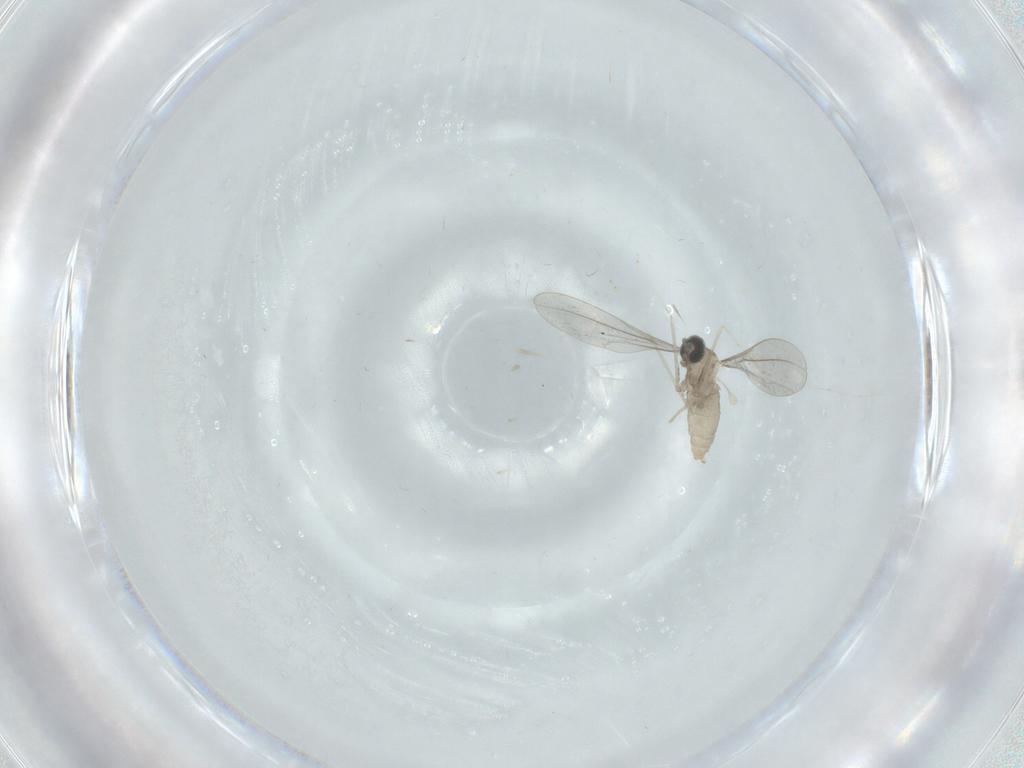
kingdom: Animalia
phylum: Arthropoda
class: Insecta
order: Diptera
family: Cecidomyiidae
